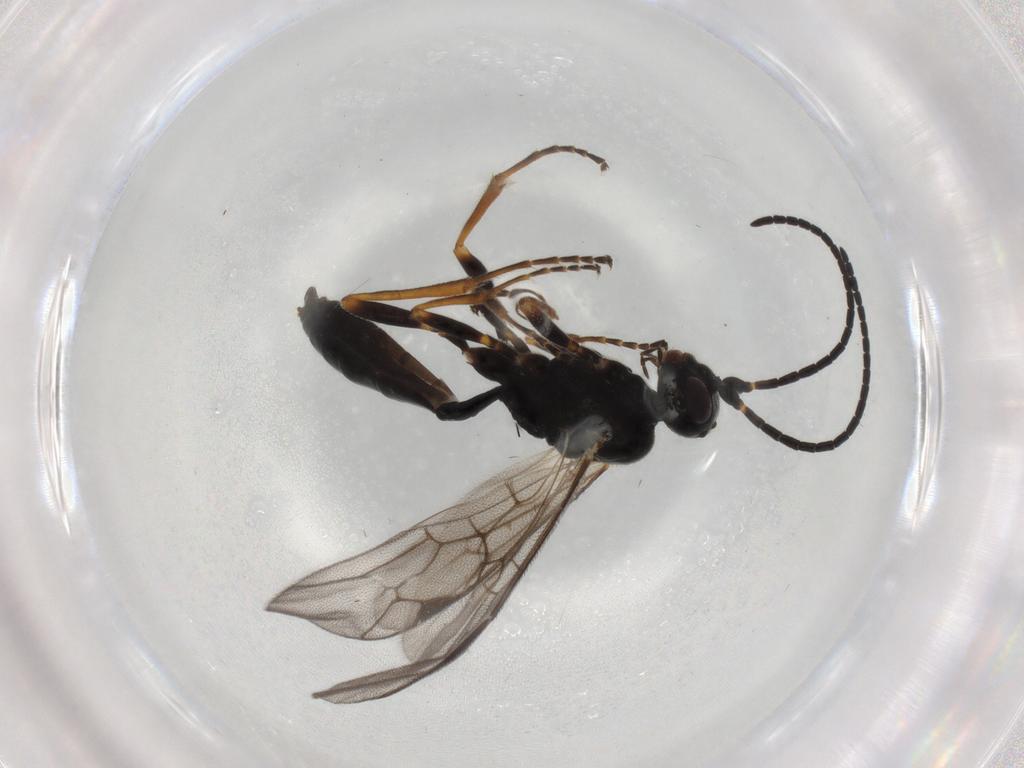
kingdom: Animalia
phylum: Arthropoda
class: Insecta
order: Hymenoptera
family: Ichneumonidae
